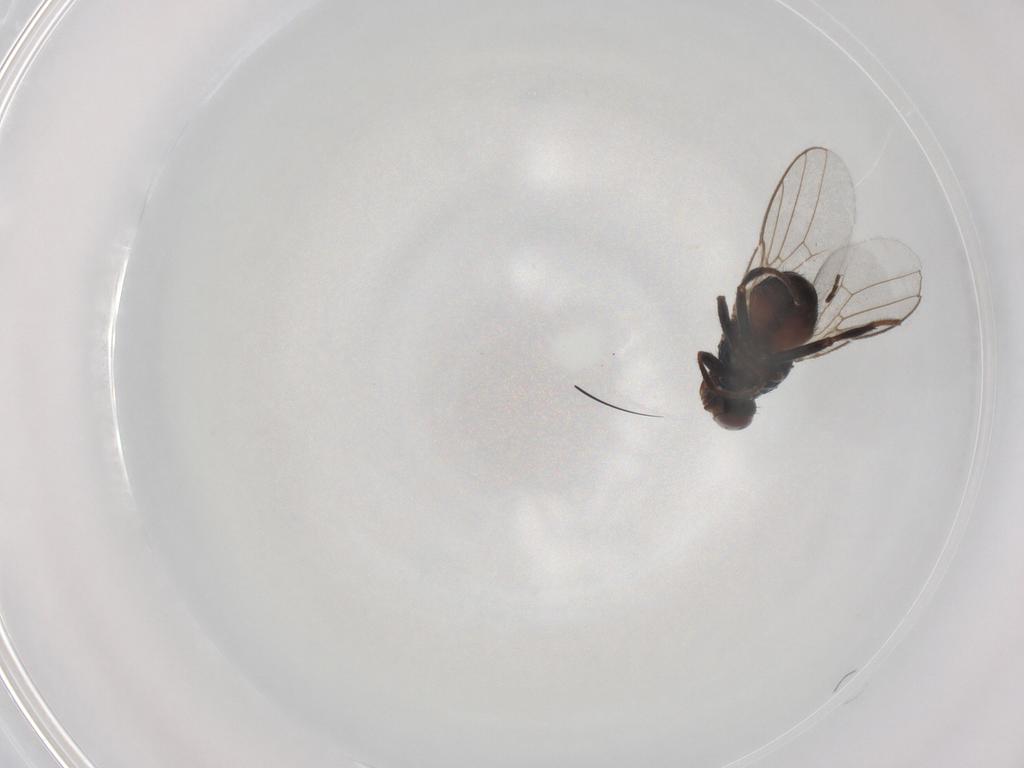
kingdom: Animalia
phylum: Arthropoda
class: Insecta
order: Diptera
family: Chloropidae
